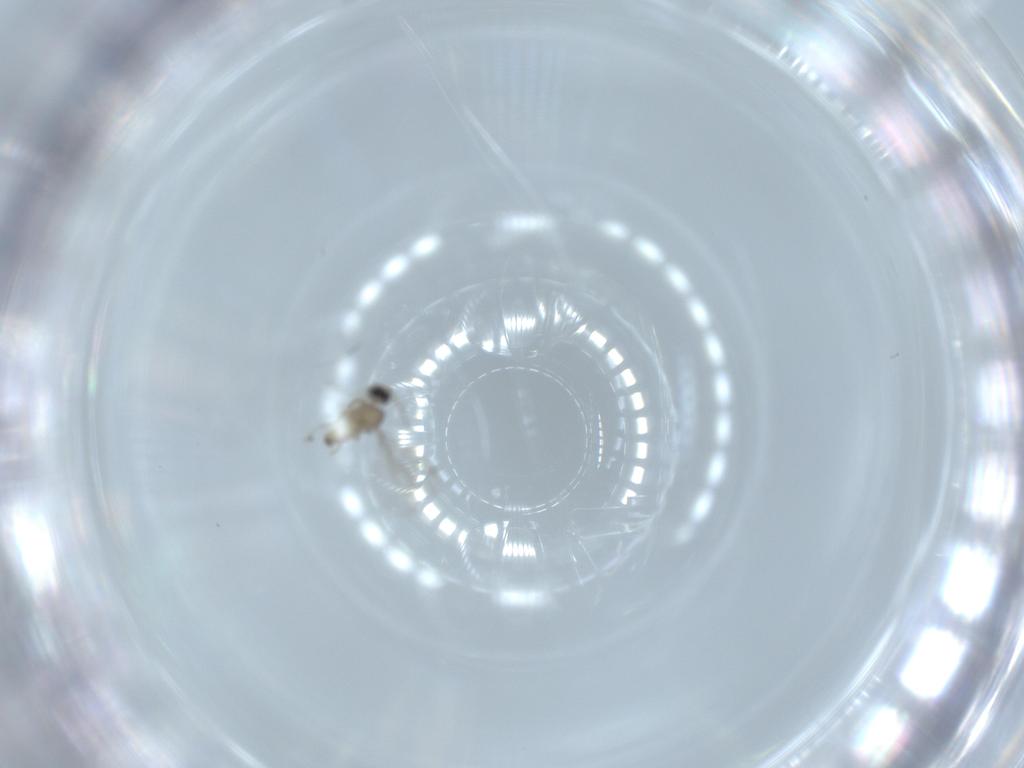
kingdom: Animalia
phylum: Arthropoda
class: Insecta
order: Diptera
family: Cecidomyiidae
